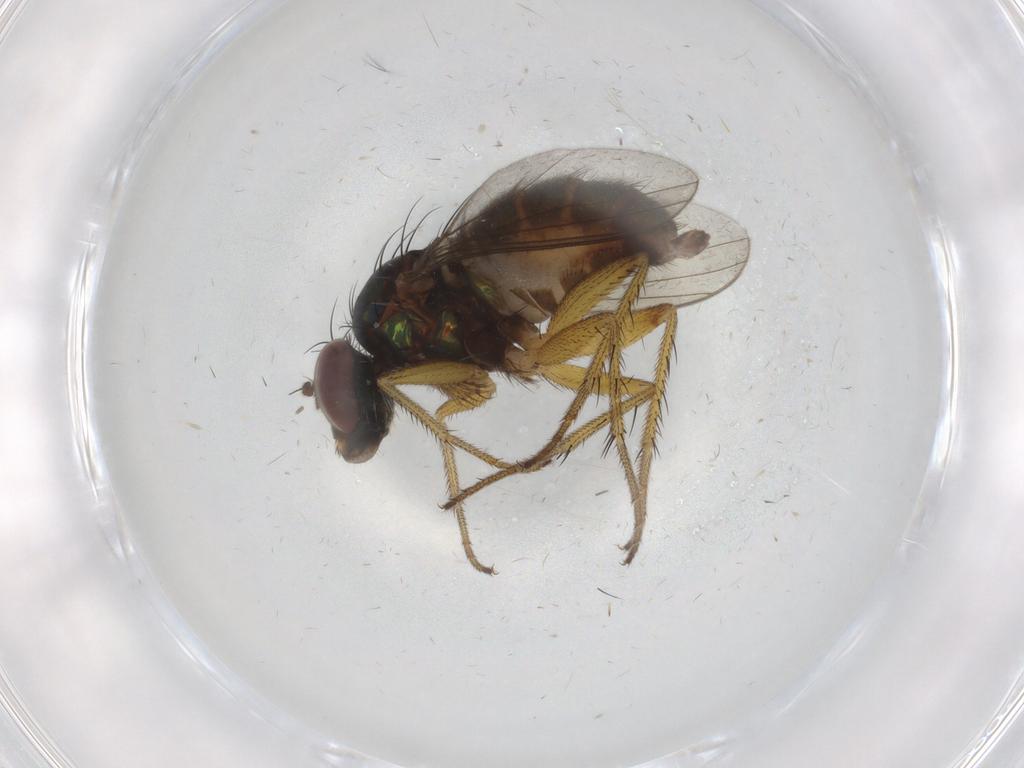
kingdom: Animalia
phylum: Arthropoda
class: Insecta
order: Diptera
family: Dolichopodidae
